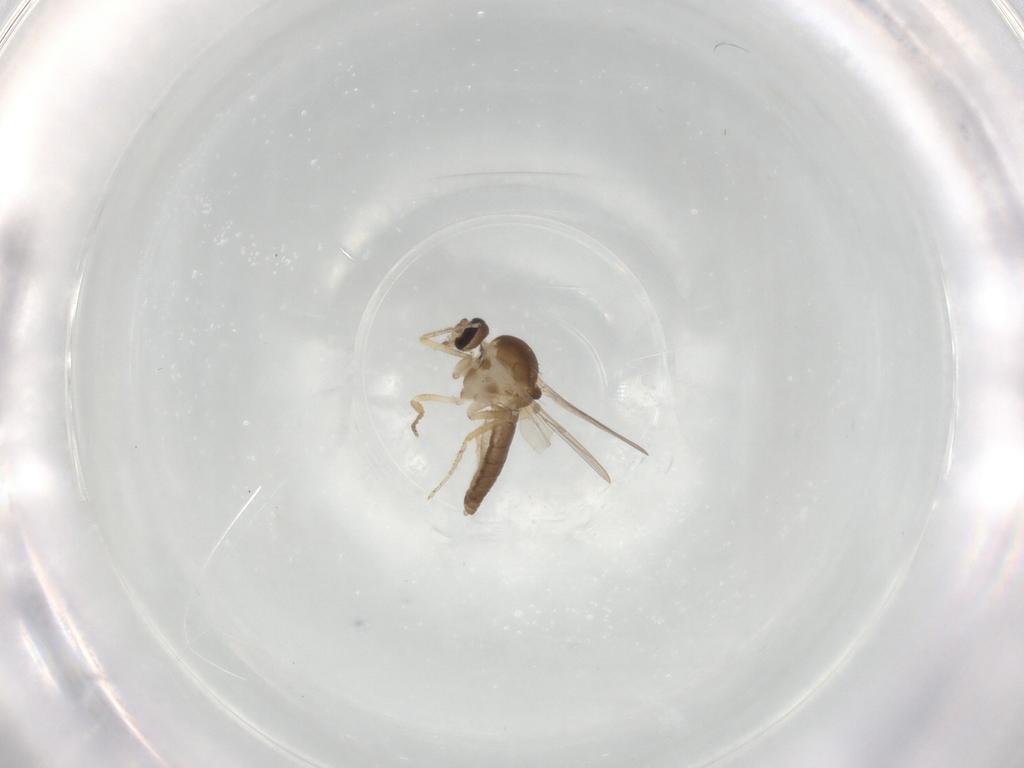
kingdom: Animalia
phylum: Arthropoda
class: Insecta
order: Diptera
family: Ceratopogonidae
